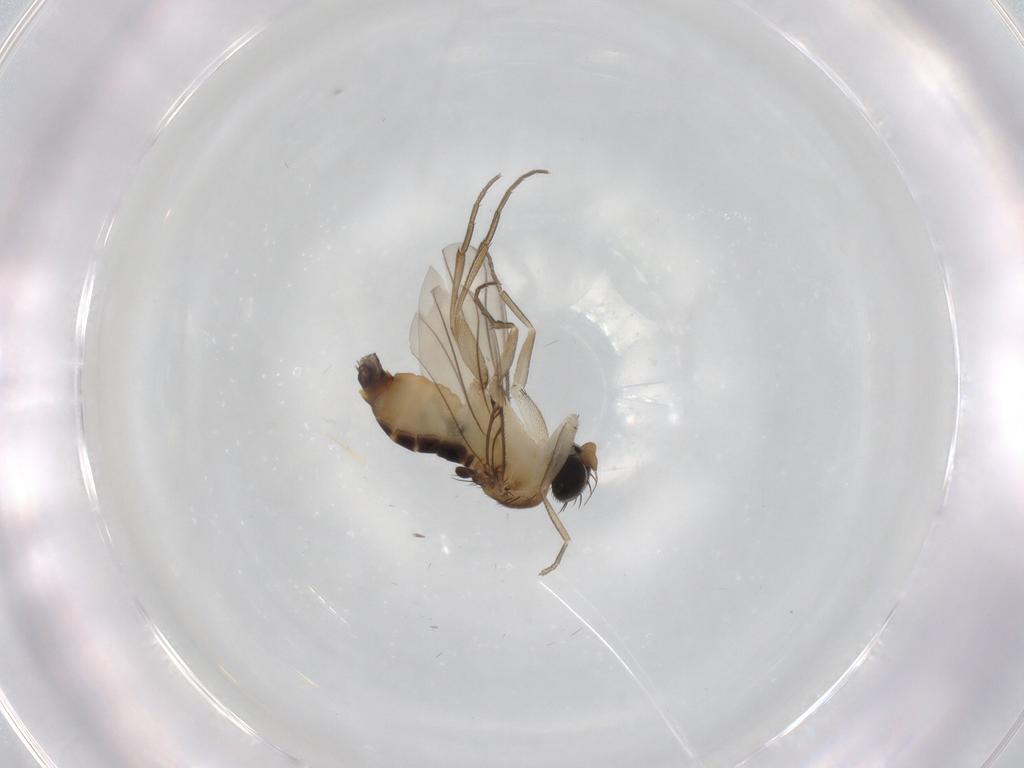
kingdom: Animalia
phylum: Arthropoda
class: Insecta
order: Diptera
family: Phoridae
